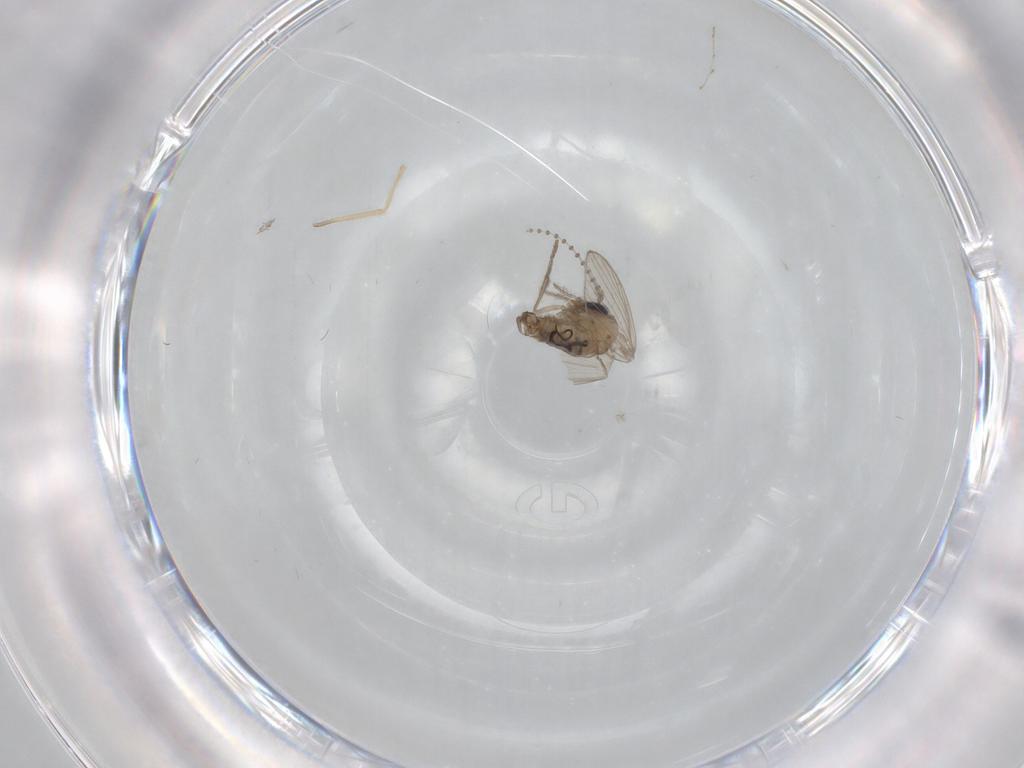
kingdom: Animalia
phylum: Arthropoda
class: Insecta
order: Diptera
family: Psychodidae
